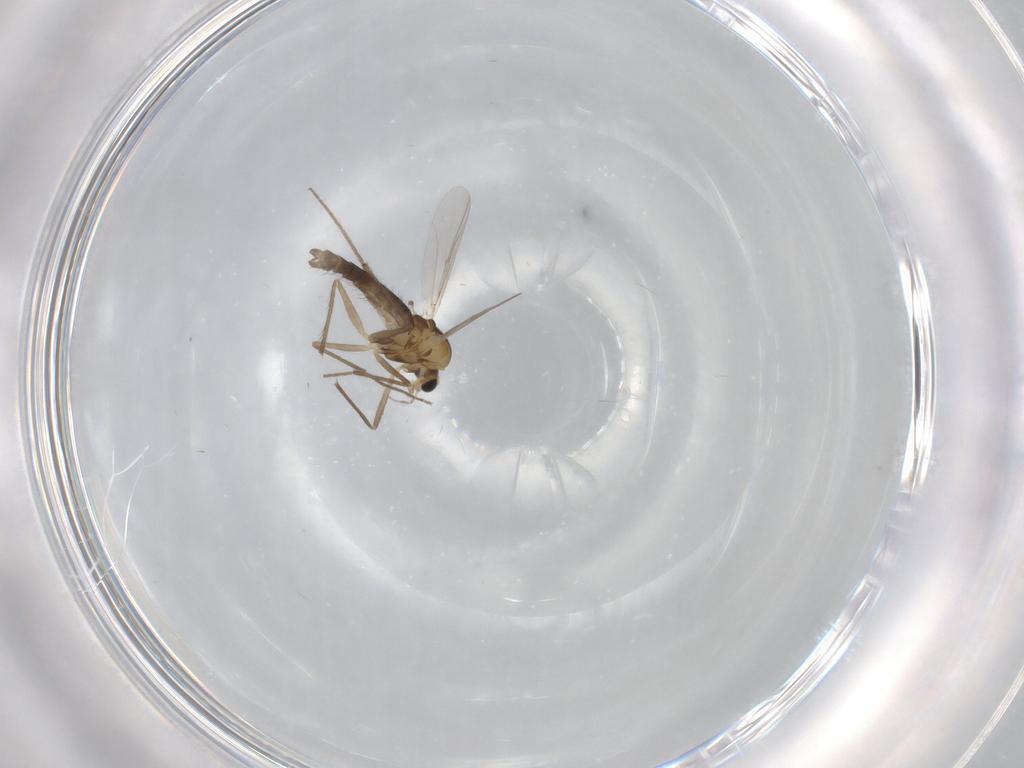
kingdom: Animalia
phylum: Arthropoda
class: Insecta
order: Diptera
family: Chironomidae
